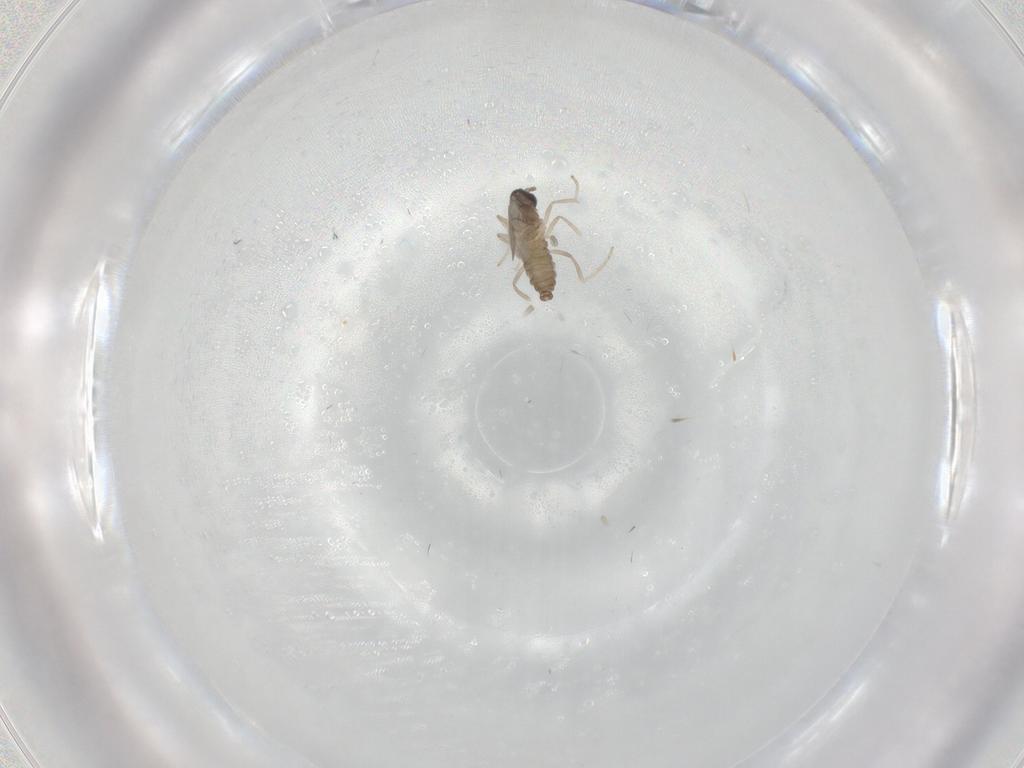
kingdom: Animalia
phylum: Arthropoda
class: Insecta
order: Diptera
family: Cecidomyiidae
